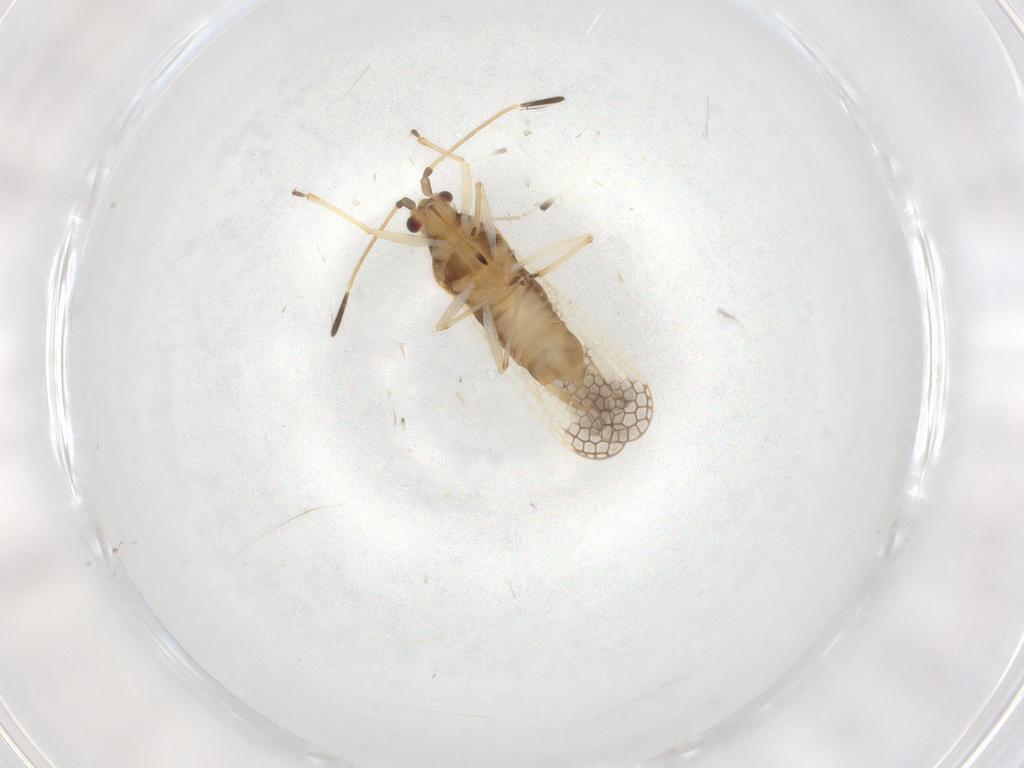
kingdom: Animalia
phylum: Arthropoda
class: Insecta
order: Hemiptera
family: Tingidae
